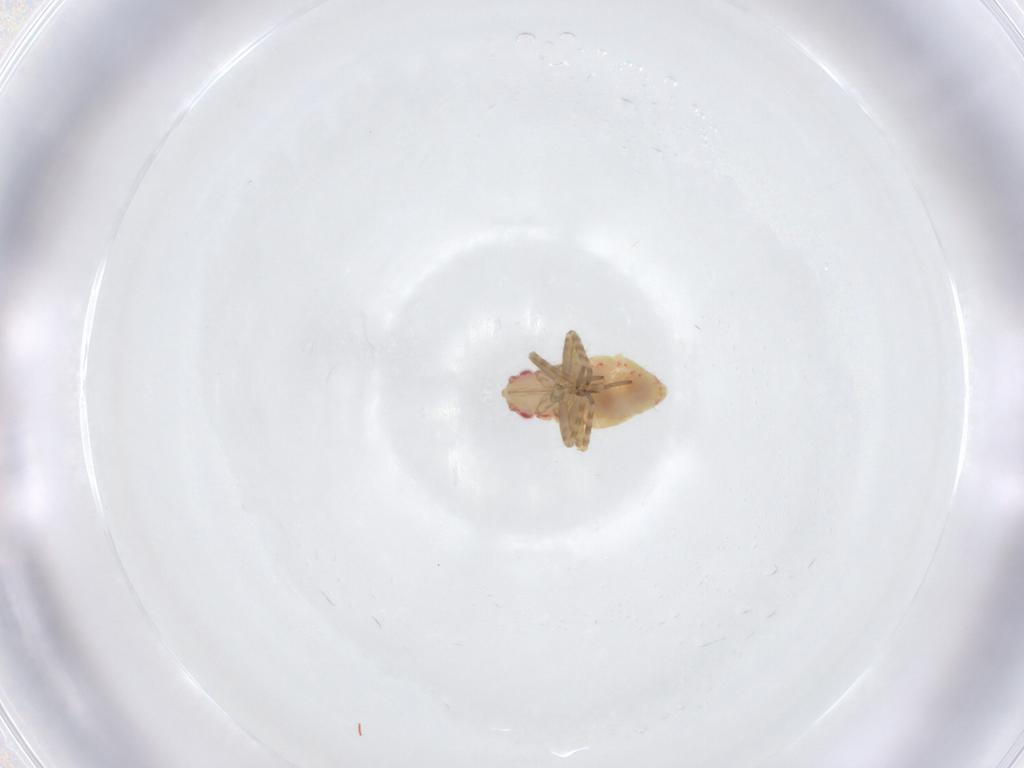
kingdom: Animalia
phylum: Arthropoda
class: Insecta
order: Hemiptera
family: Miridae
